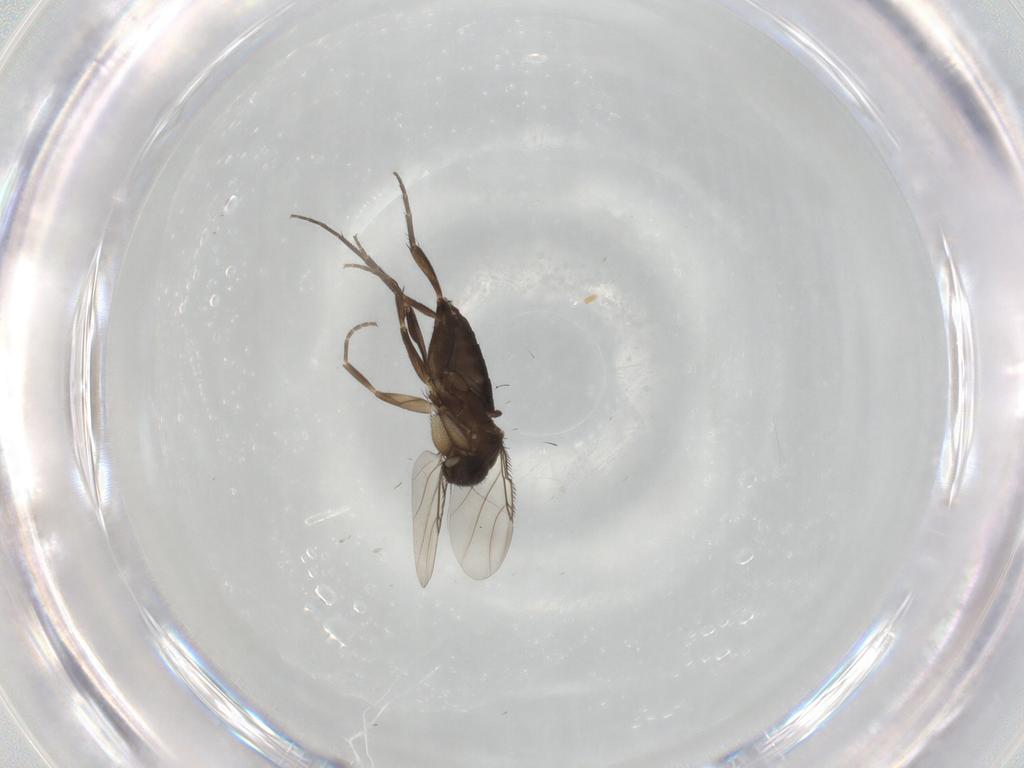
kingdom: Animalia
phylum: Arthropoda
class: Insecta
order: Diptera
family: Phoridae
